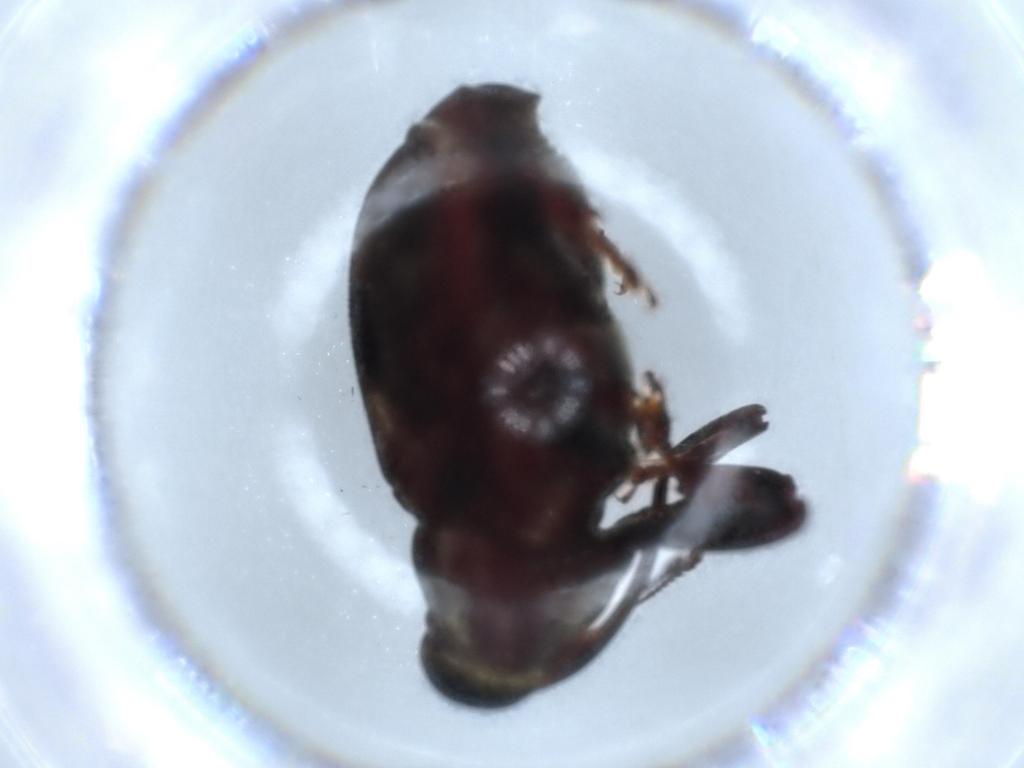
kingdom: Animalia
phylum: Arthropoda
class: Insecta
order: Coleoptera
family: Curculionidae
